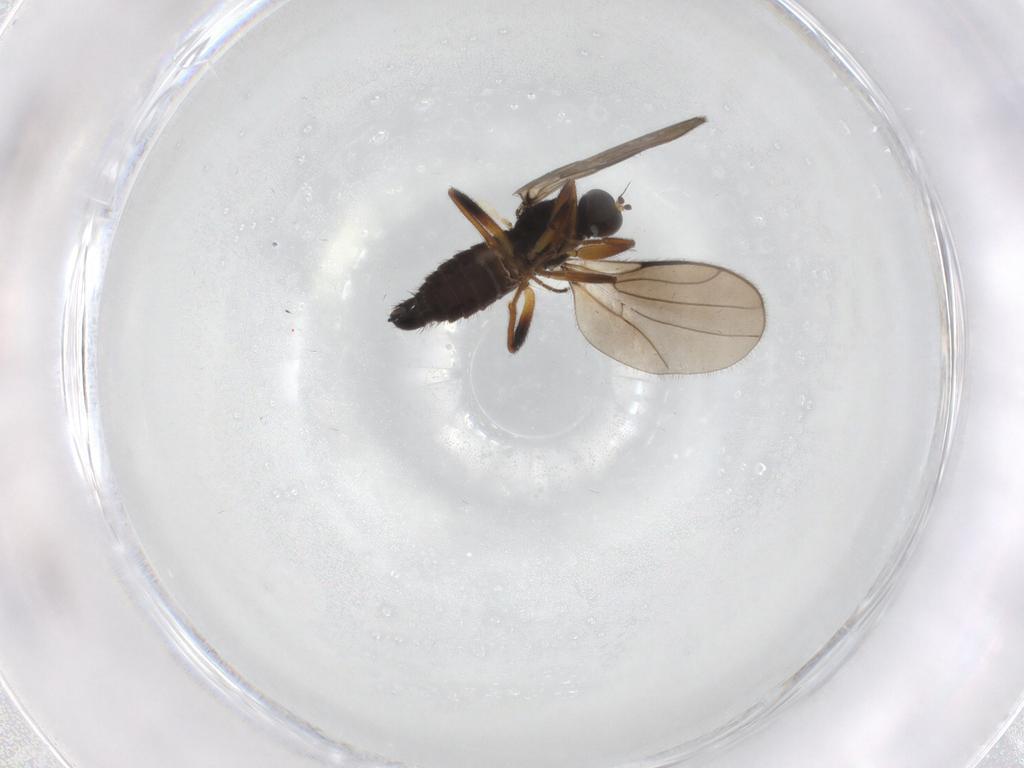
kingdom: Animalia
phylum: Arthropoda
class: Insecta
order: Diptera
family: Hybotidae
